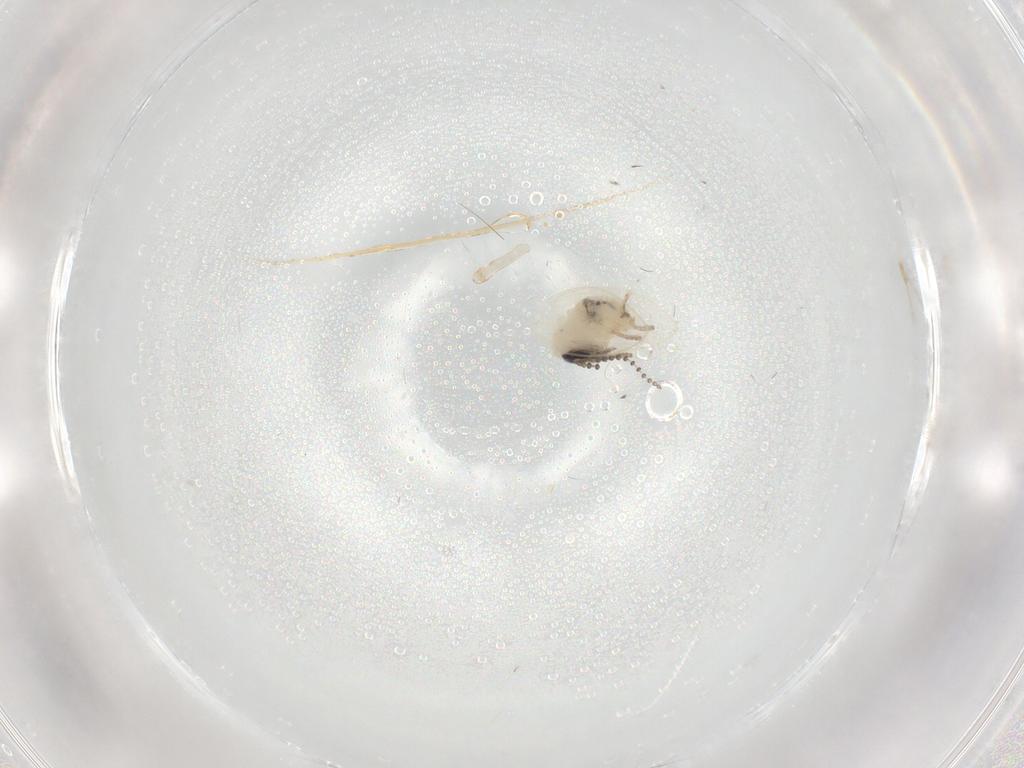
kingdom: Animalia
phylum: Arthropoda
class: Insecta
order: Diptera
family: Psychodidae
